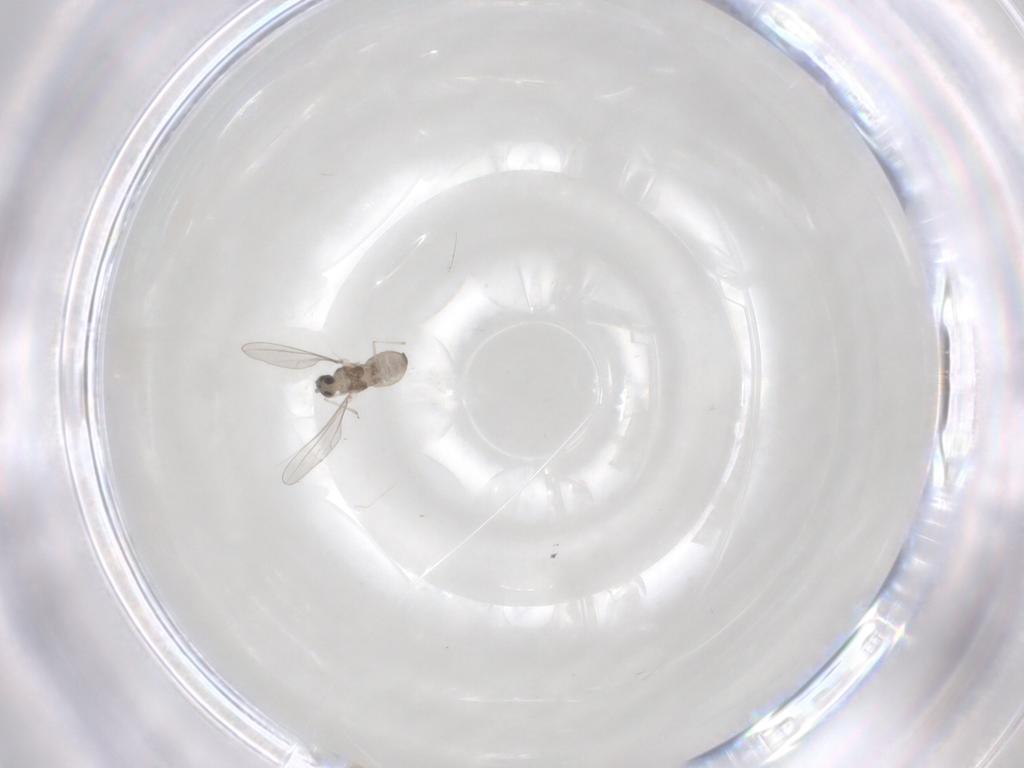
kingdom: Animalia
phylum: Arthropoda
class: Insecta
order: Diptera
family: Cecidomyiidae
